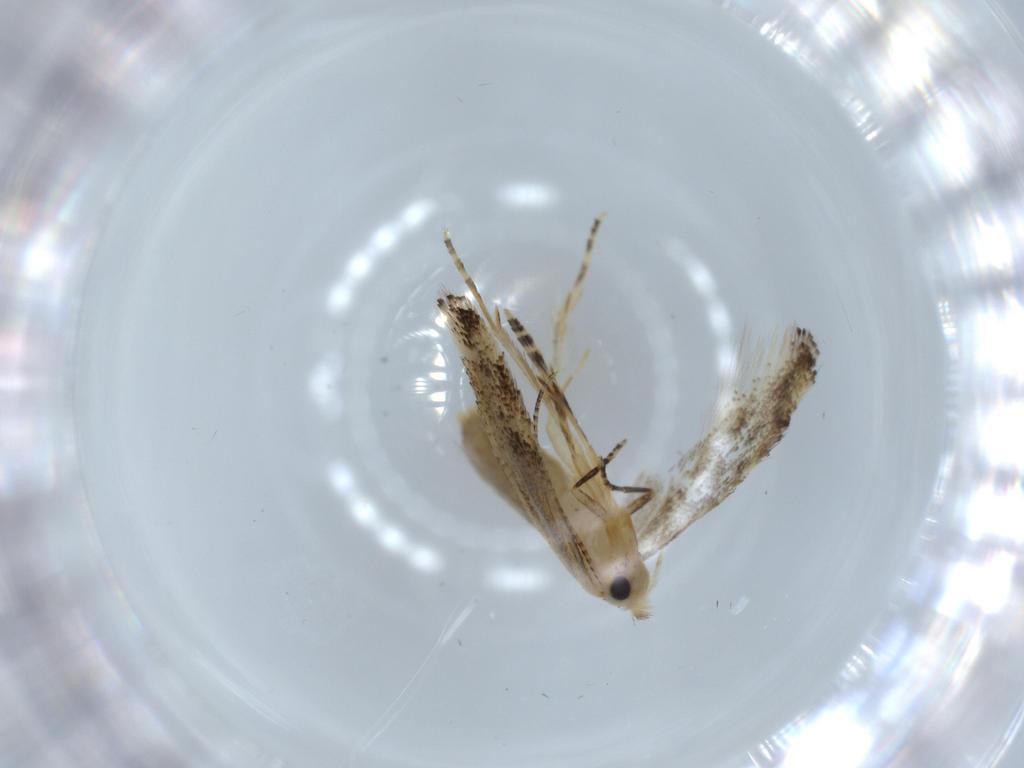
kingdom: Animalia
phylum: Arthropoda
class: Insecta
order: Lepidoptera
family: Bucculatricidae
